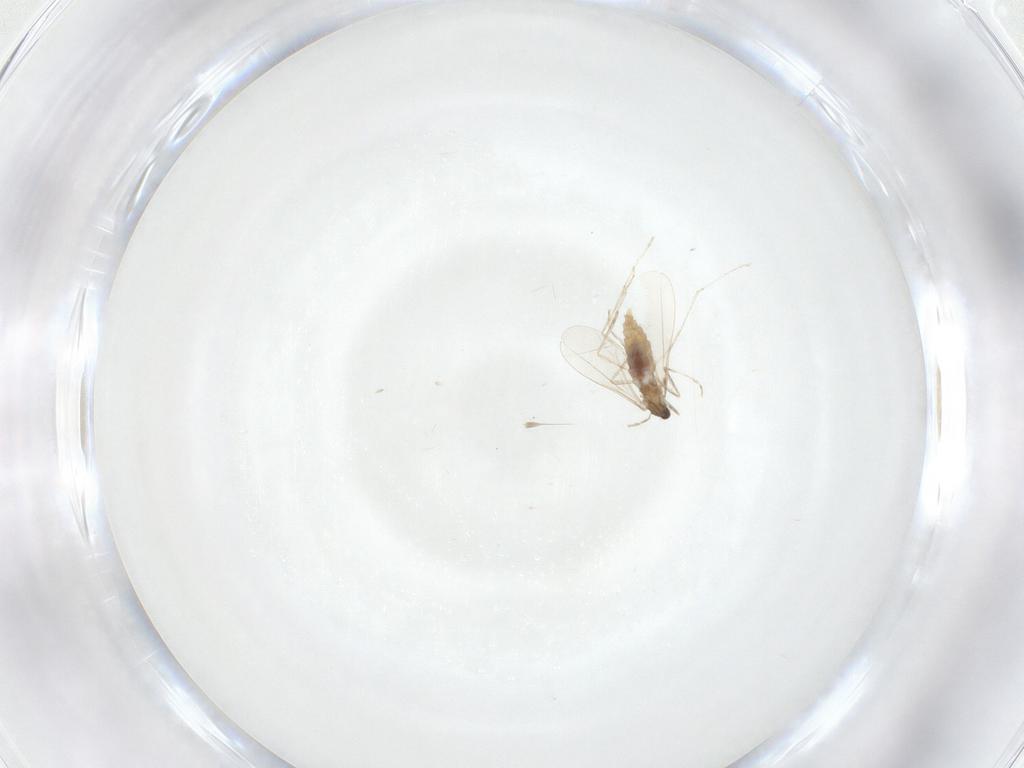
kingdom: Animalia
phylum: Arthropoda
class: Insecta
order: Diptera
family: Cecidomyiidae
